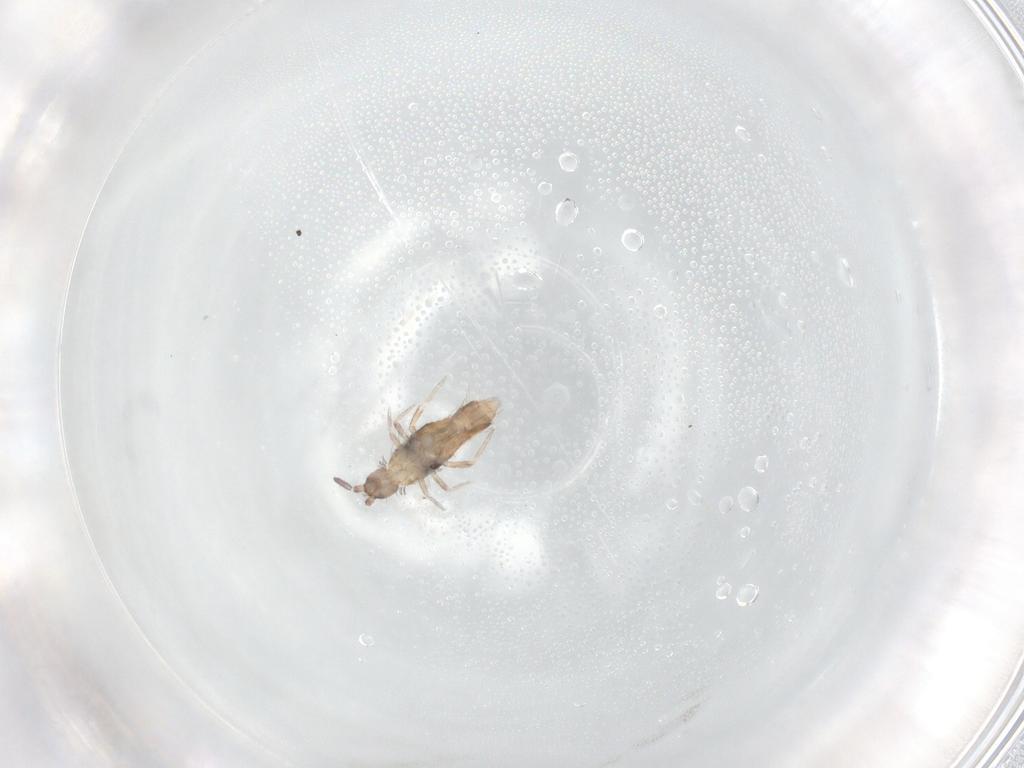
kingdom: Animalia
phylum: Arthropoda
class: Collembola
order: Entomobryomorpha
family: Entomobryidae
